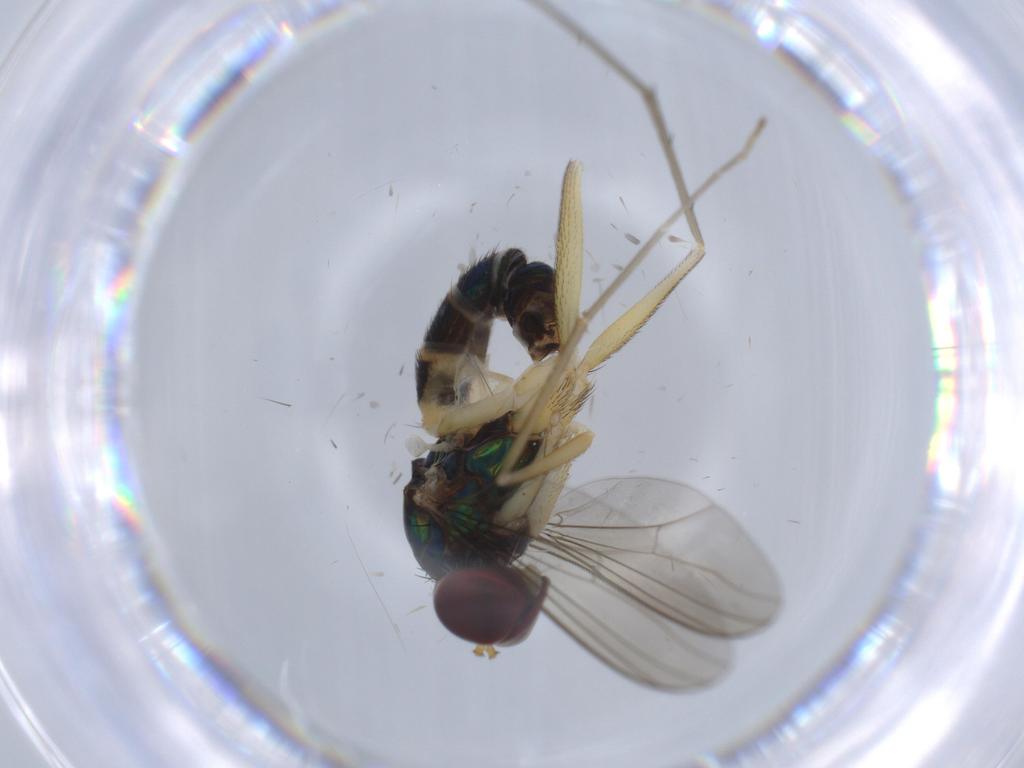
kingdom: Animalia
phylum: Arthropoda
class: Insecta
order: Diptera
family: Dolichopodidae
